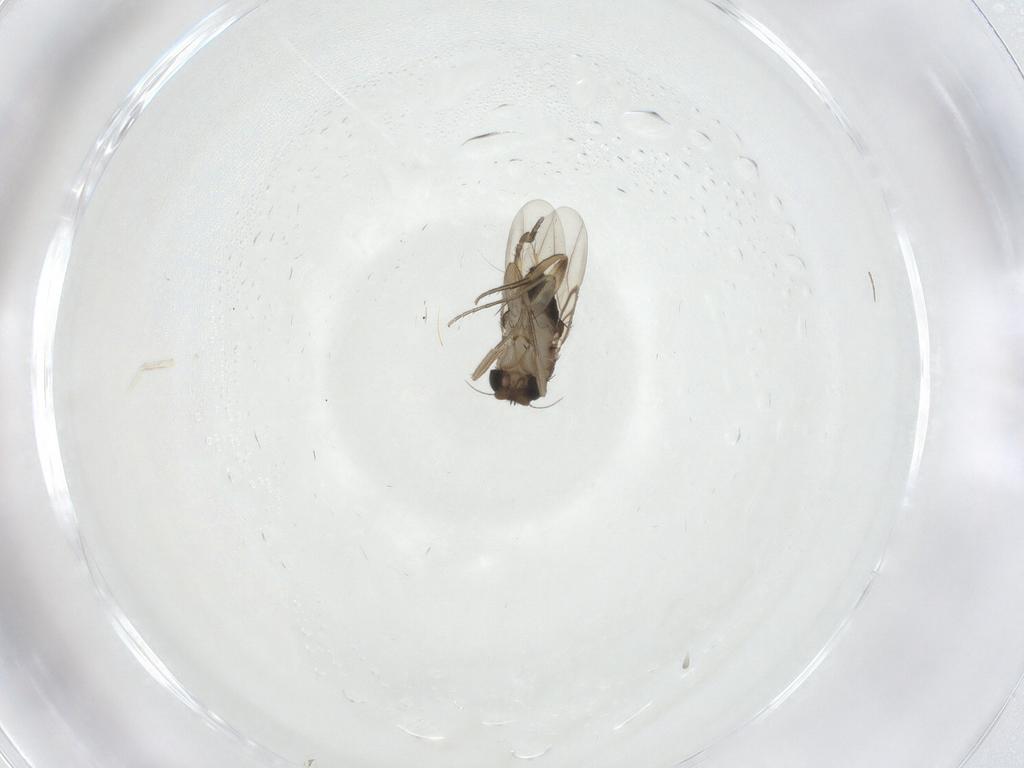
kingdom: Animalia
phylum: Arthropoda
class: Insecta
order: Diptera
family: Phoridae
